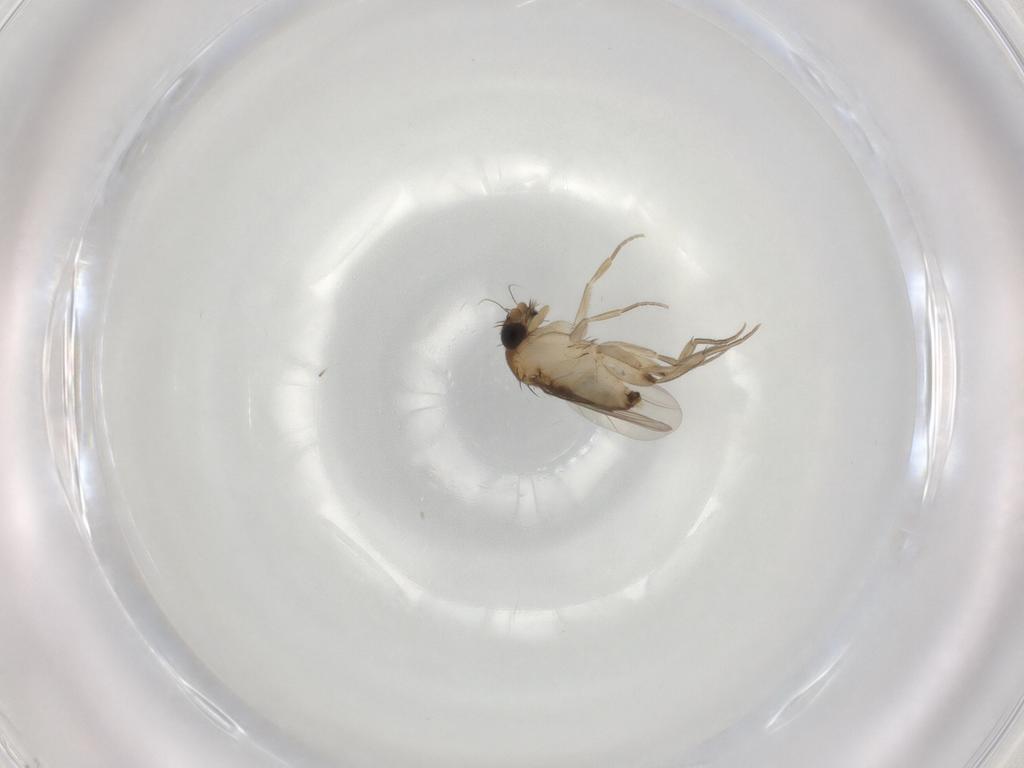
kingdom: Animalia
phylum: Arthropoda
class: Insecta
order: Diptera
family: Phoridae
